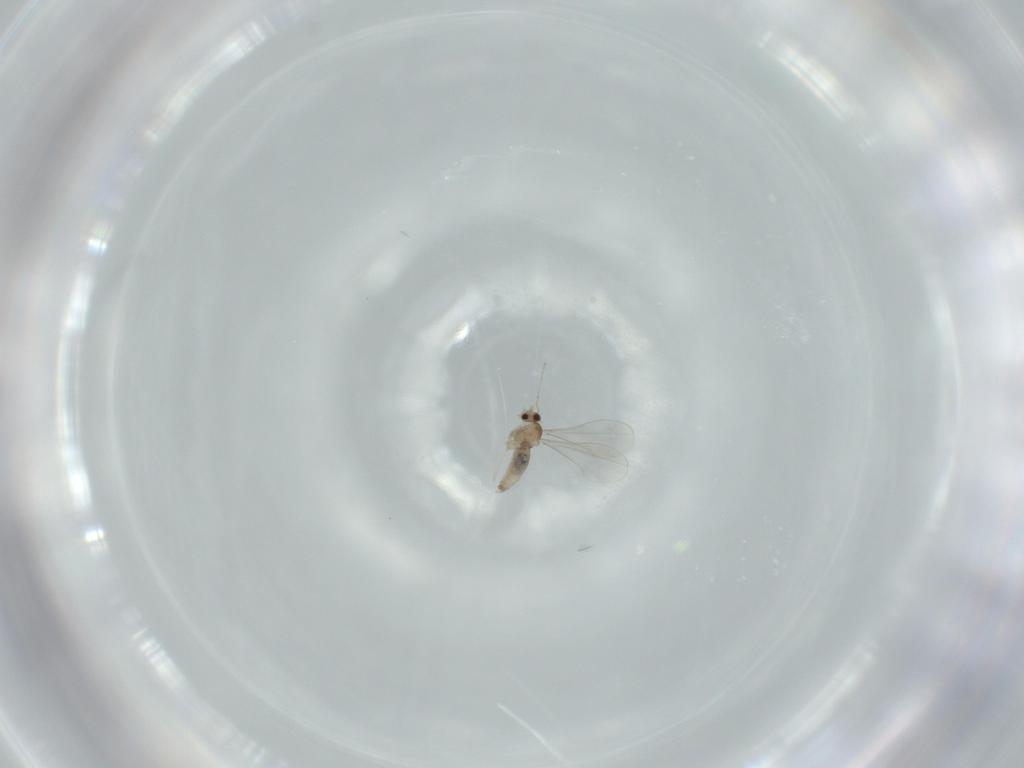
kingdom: Animalia
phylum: Arthropoda
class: Insecta
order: Diptera
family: Cecidomyiidae
